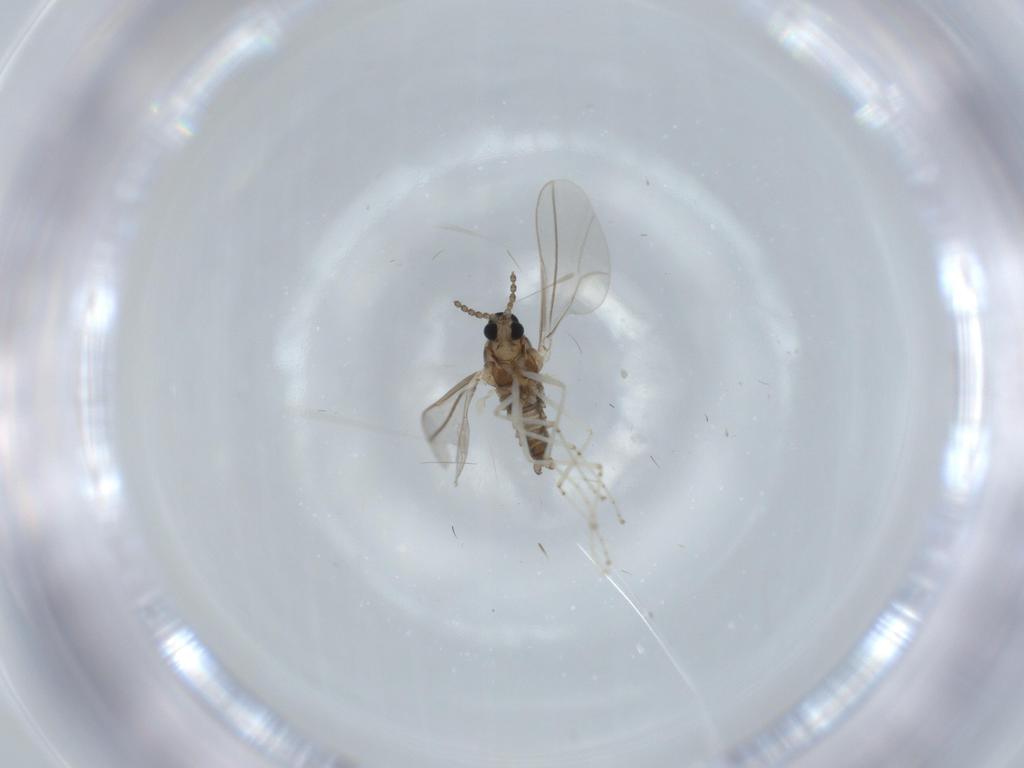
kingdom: Animalia
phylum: Arthropoda
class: Insecta
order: Diptera
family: Cecidomyiidae
